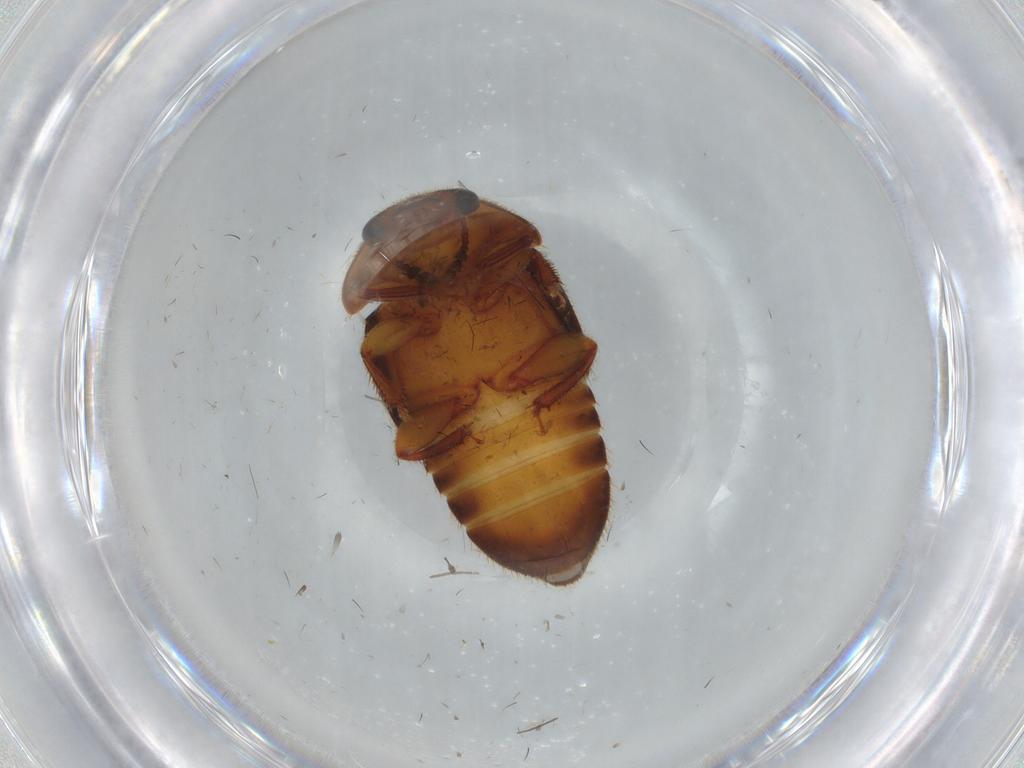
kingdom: Animalia
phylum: Arthropoda
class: Insecta
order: Coleoptera
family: Nitidulidae
